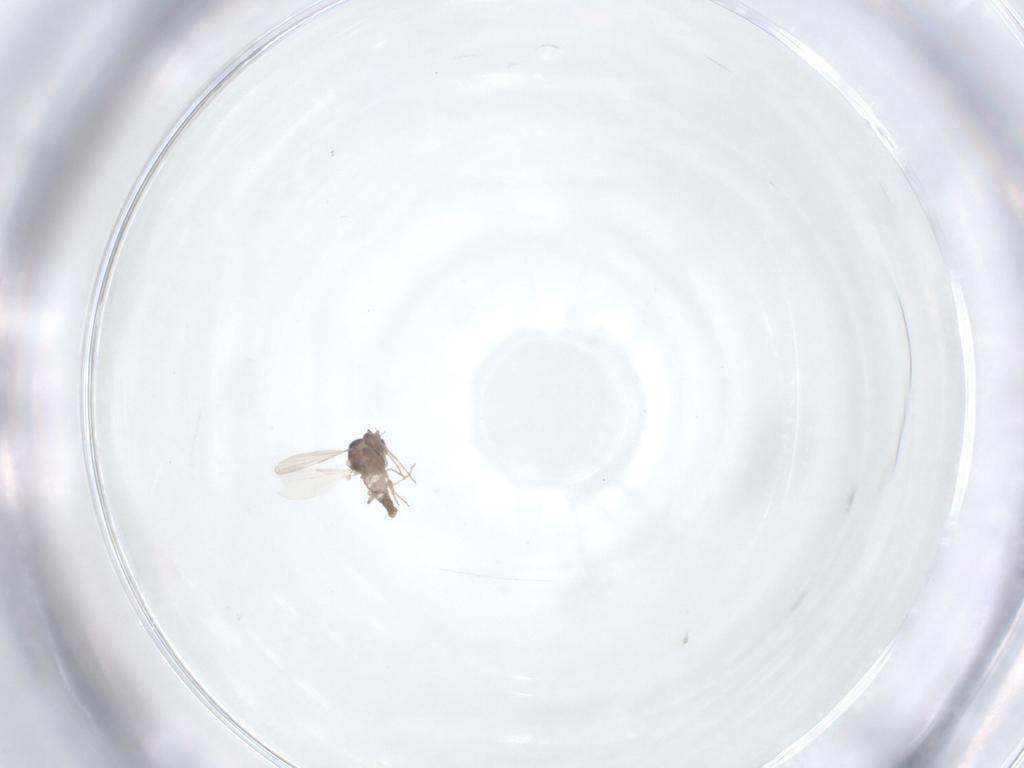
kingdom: Animalia
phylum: Arthropoda
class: Insecta
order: Diptera
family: Ceratopogonidae
